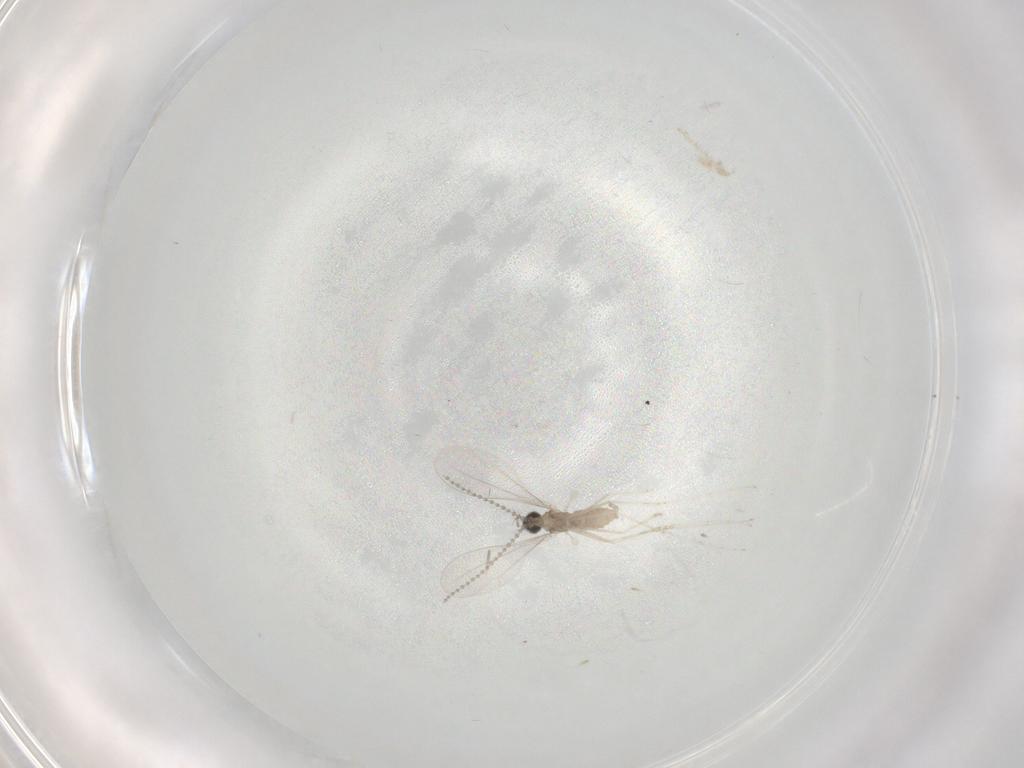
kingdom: Animalia
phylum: Arthropoda
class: Insecta
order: Diptera
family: Cecidomyiidae
